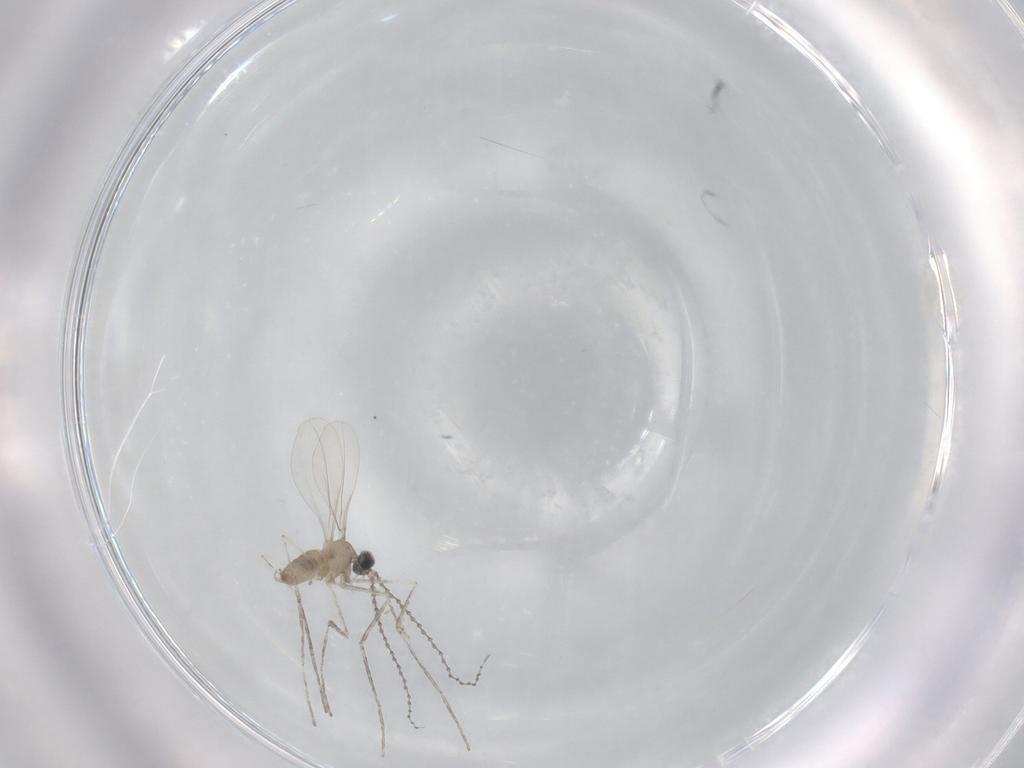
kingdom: Animalia
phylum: Arthropoda
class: Insecta
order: Diptera
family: Cecidomyiidae
